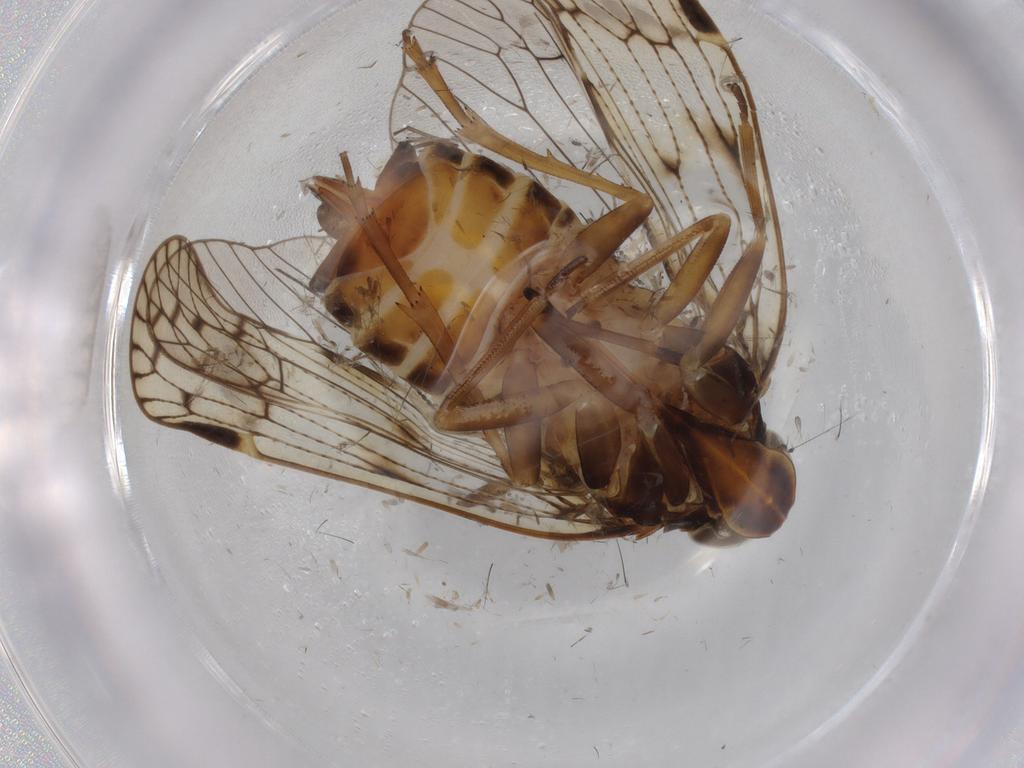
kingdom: Animalia
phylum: Arthropoda
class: Insecta
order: Hemiptera
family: Cixiidae
